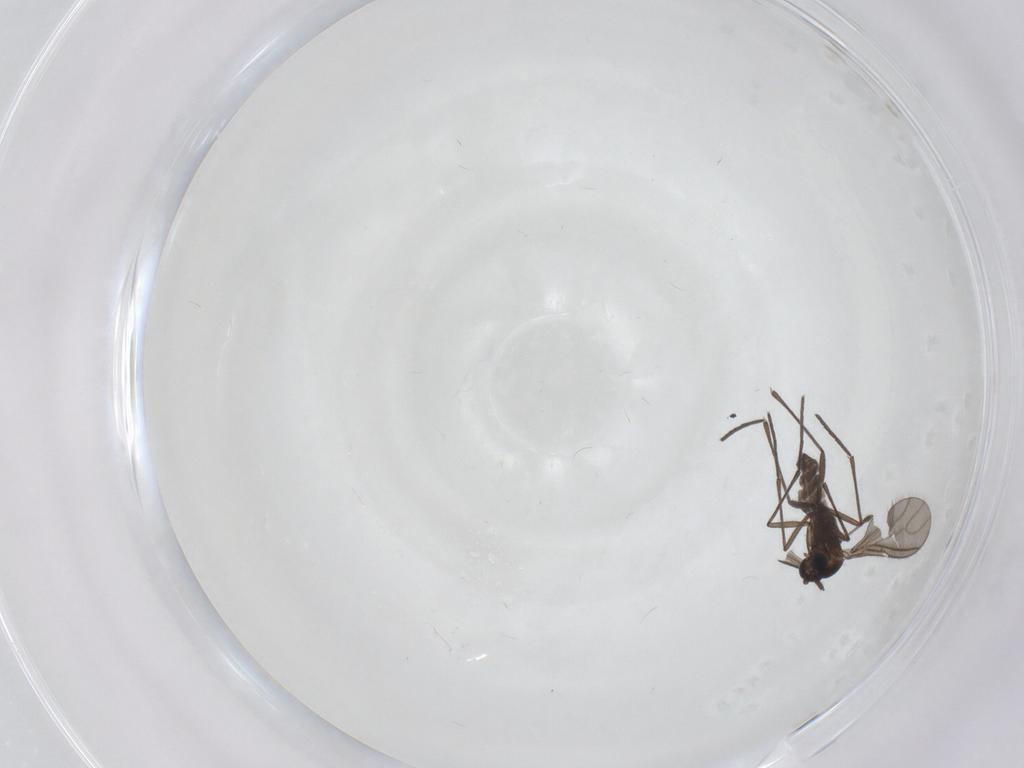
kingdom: Animalia
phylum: Arthropoda
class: Insecta
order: Diptera
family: Sciaridae
